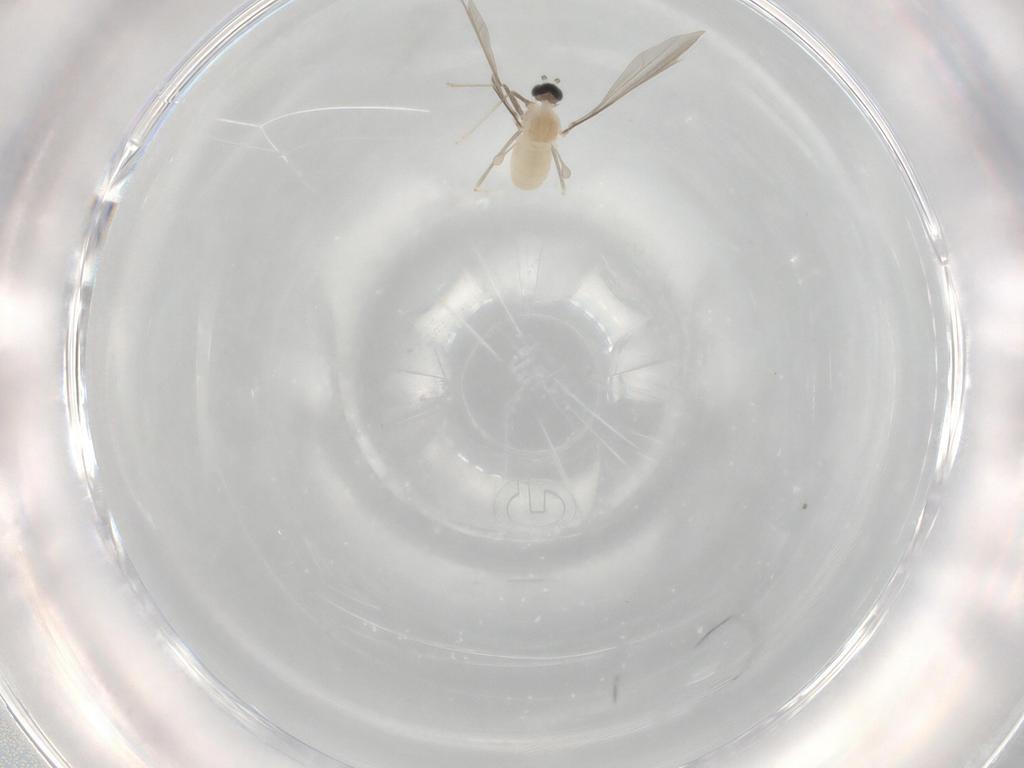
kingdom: Animalia
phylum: Arthropoda
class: Insecta
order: Diptera
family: Cecidomyiidae
